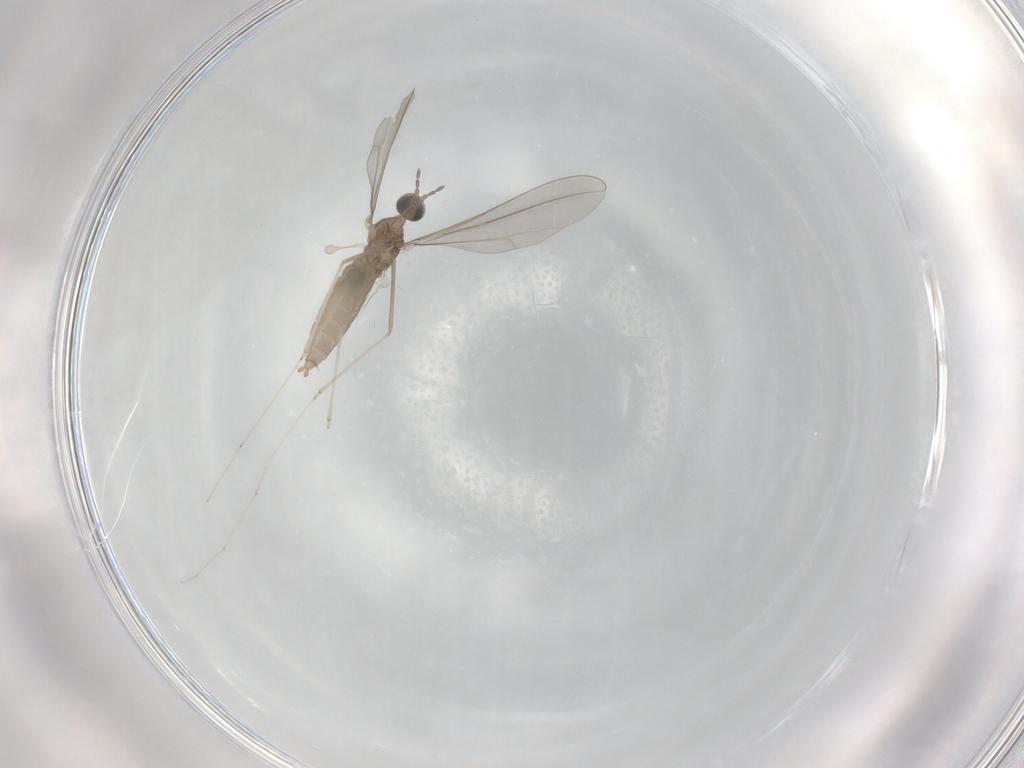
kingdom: Animalia
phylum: Arthropoda
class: Insecta
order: Diptera
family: Cecidomyiidae
